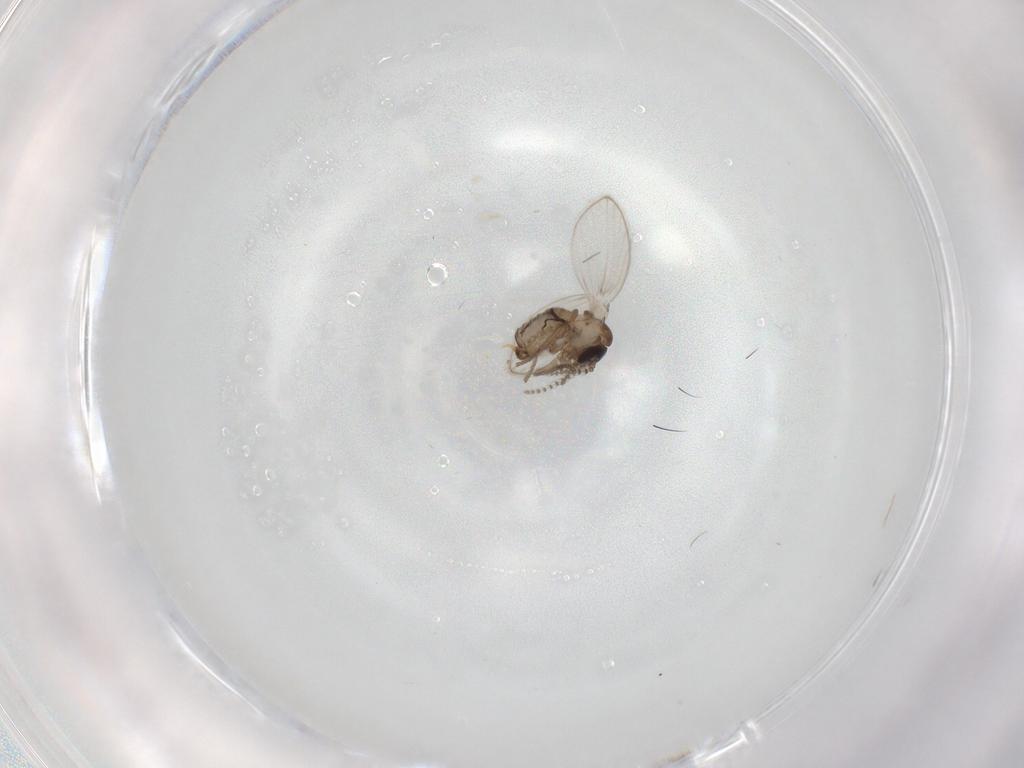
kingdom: Animalia
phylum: Arthropoda
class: Insecta
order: Diptera
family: Psychodidae
